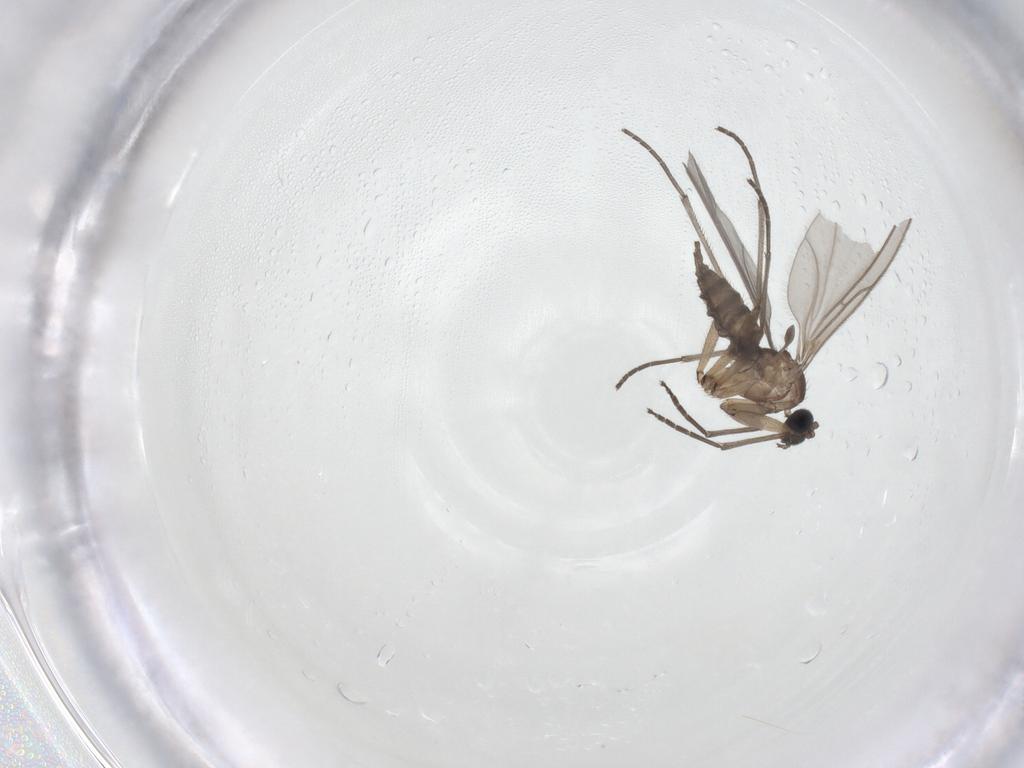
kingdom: Animalia
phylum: Arthropoda
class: Insecta
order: Diptera
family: Sciaridae
